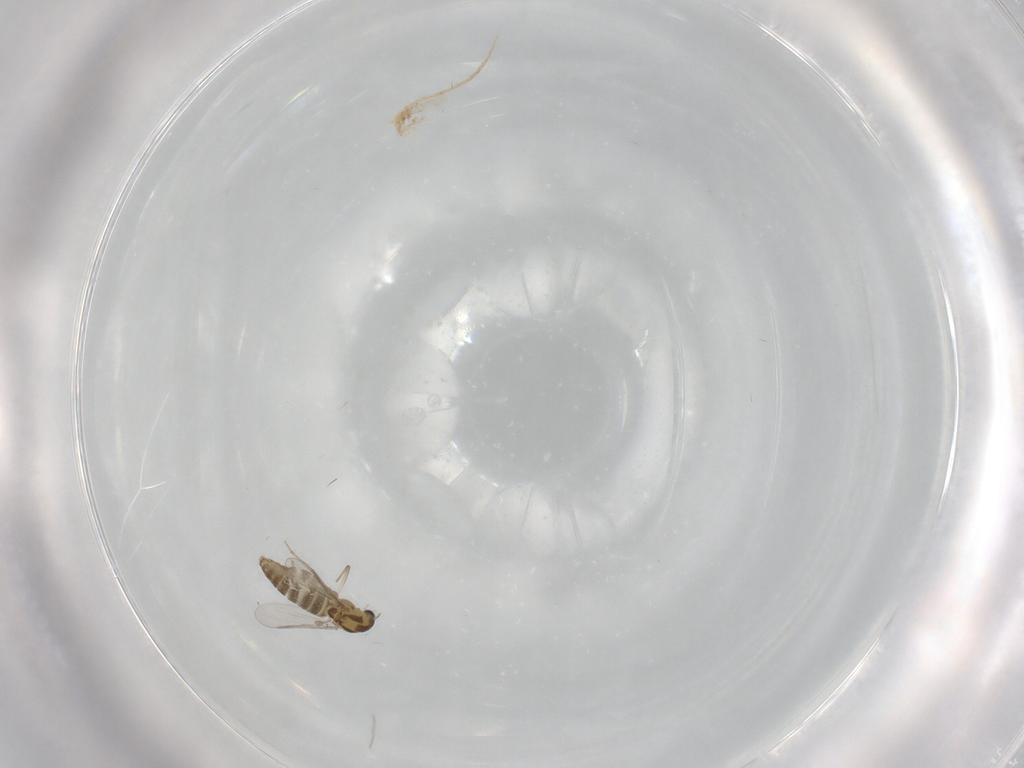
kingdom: Animalia
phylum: Arthropoda
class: Insecta
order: Diptera
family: Chironomidae
